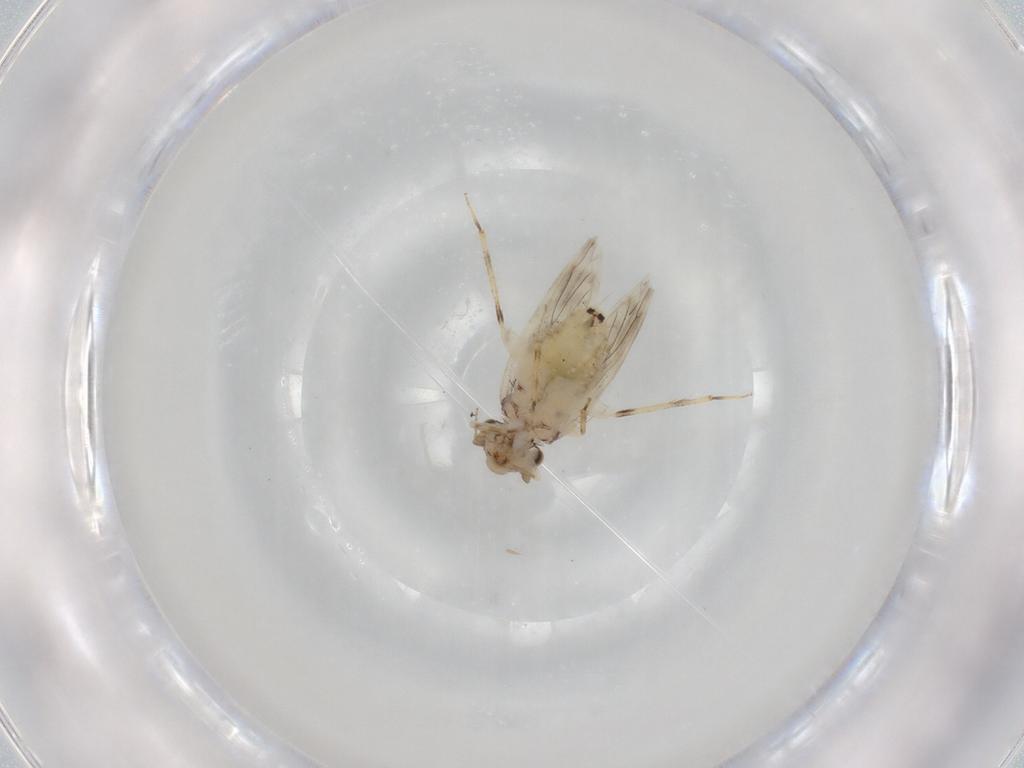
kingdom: Animalia
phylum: Arthropoda
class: Insecta
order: Psocodea
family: Lepidopsocidae
